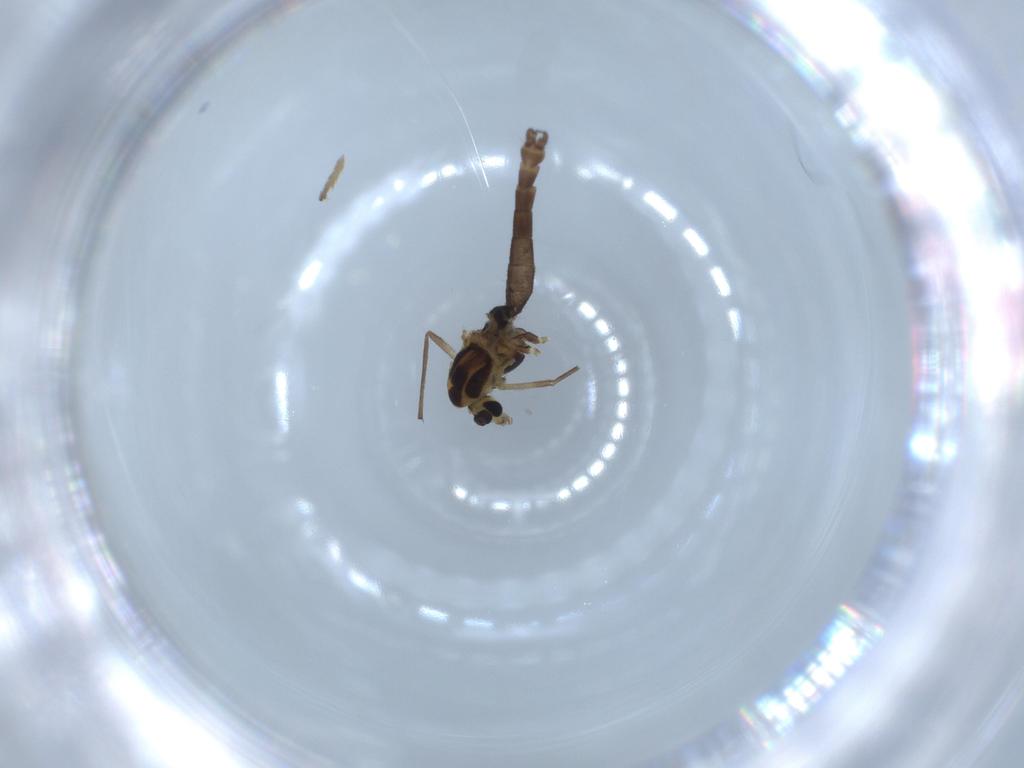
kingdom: Animalia
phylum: Arthropoda
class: Insecta
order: Diptera
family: Chironomidae
